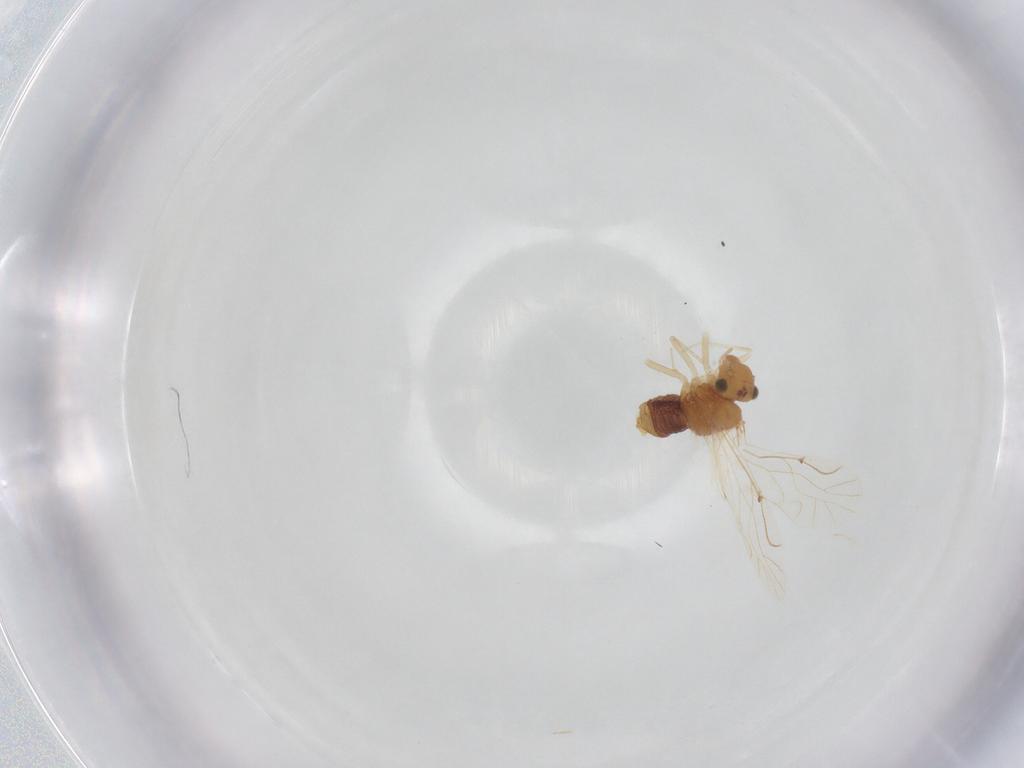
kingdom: Animalia
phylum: Arthropoda
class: Insecta
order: Psocodea
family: Lachesillidae
